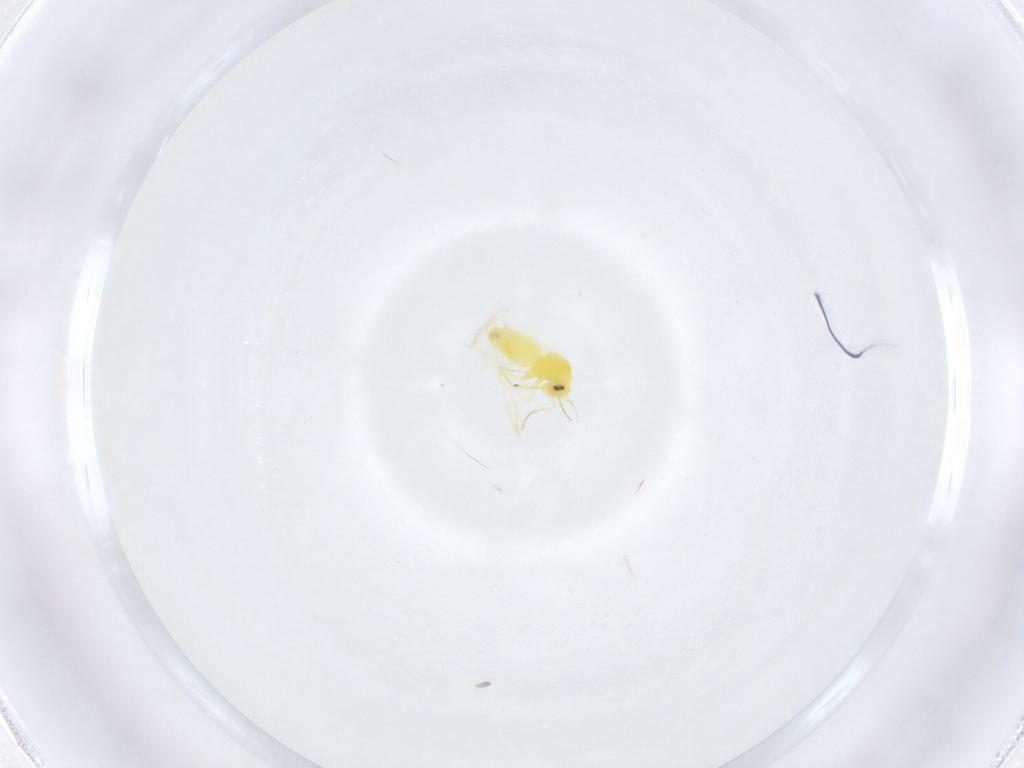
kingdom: Animalia
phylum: Arthropoda
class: Insecta
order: Hemiptera
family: Aleyrodidae
